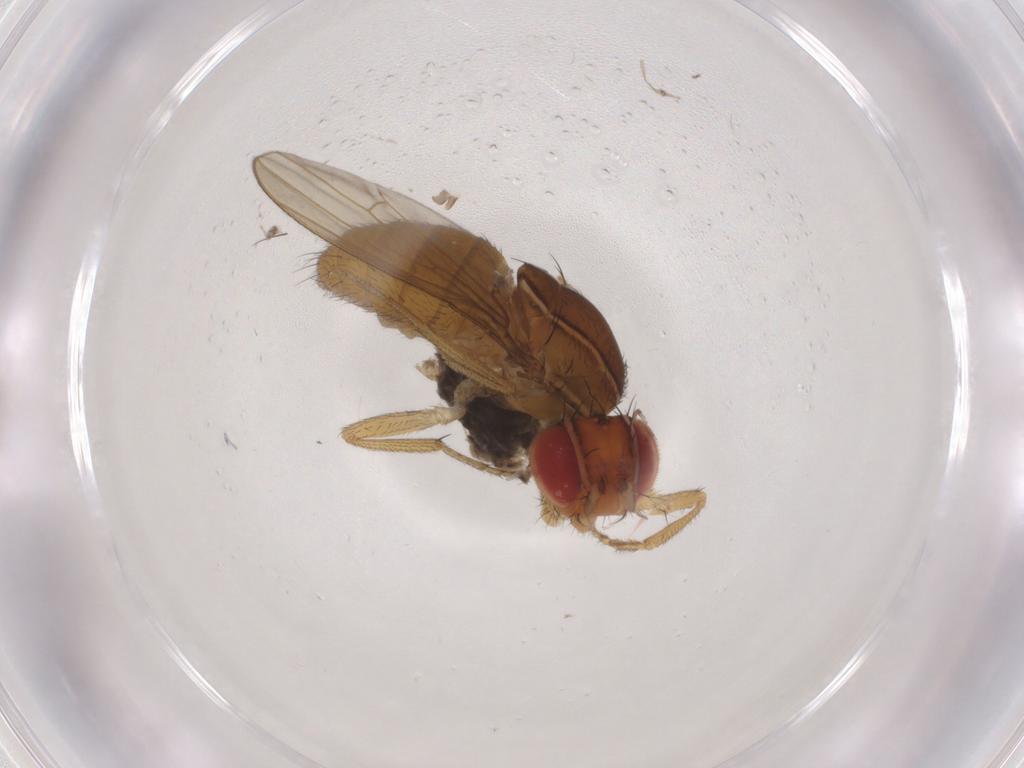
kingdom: Animalia
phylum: Arthropoda
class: Insecta
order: Diptera
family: Drosophilidae
